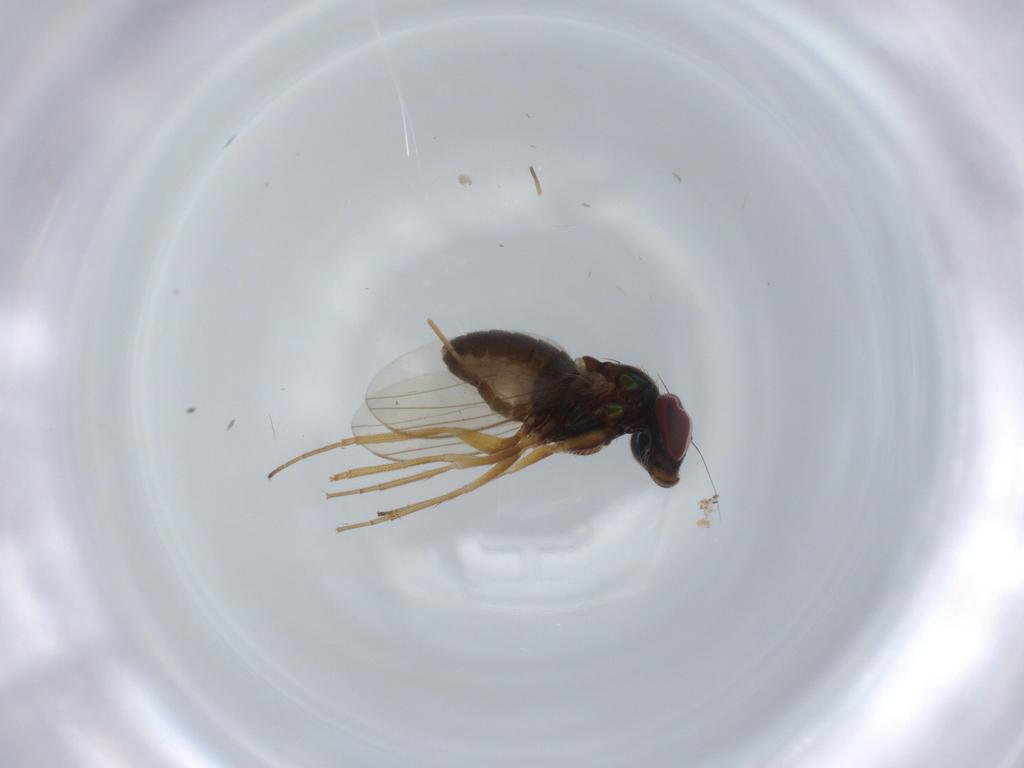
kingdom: Animalia
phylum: Arthropoda
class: Insecta
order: Diptera
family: Cecidomyiidae
